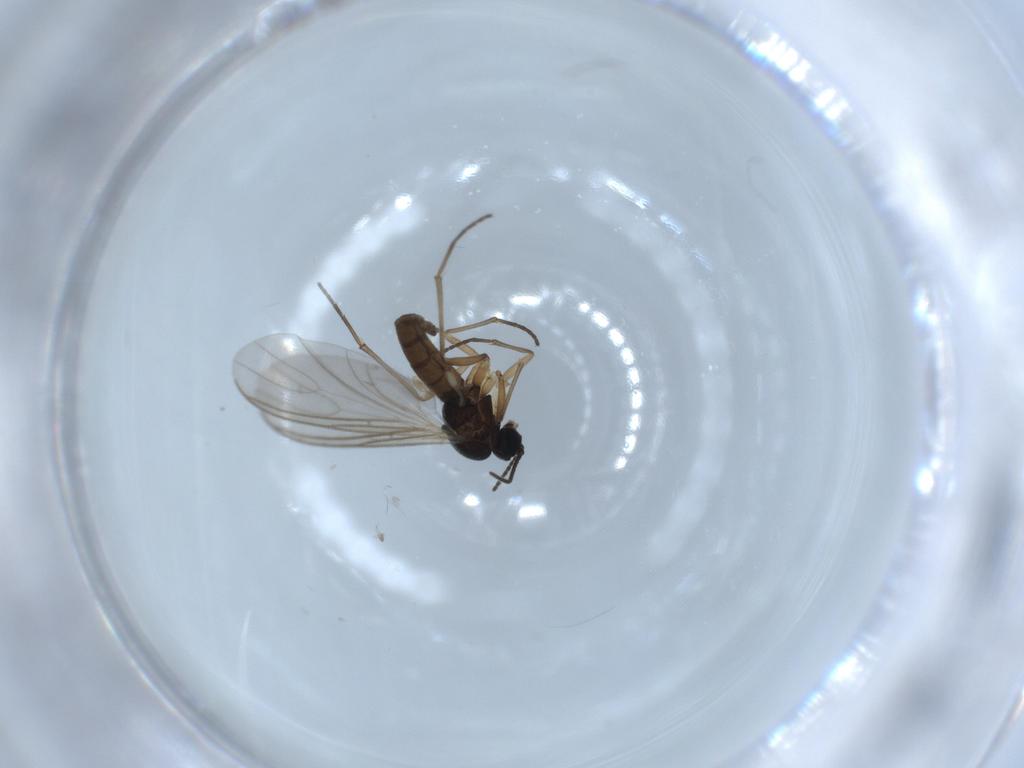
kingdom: Animalia
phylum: Arthropoda
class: Insecta
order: Diptera
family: Sciaridae
